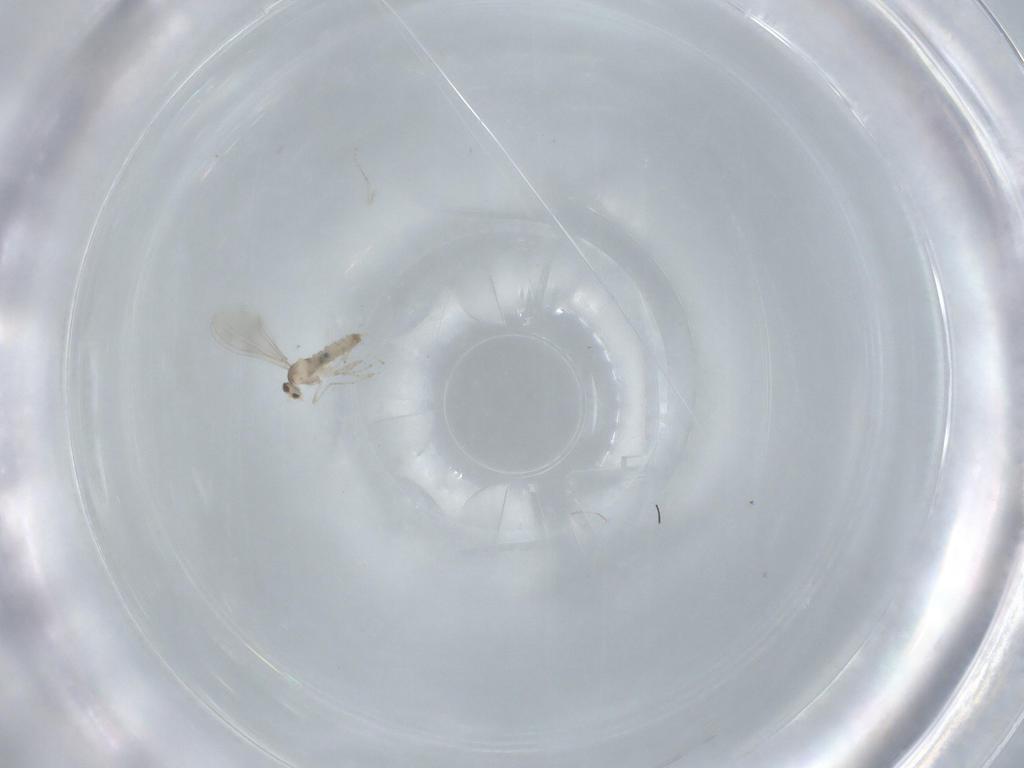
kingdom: Animalia
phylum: Arthropoda
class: Insecta
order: Diptera
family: Cecidomyiidae
